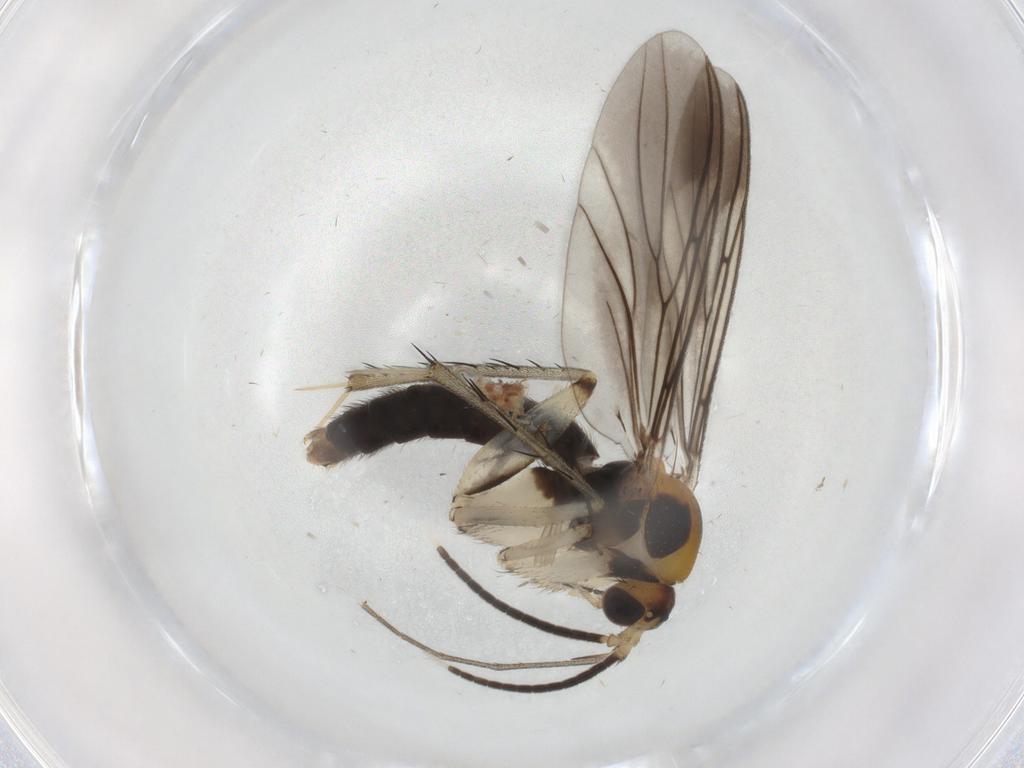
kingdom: Animalia
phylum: Arthropoda
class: Insecta
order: Diptera
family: Mycetophilidae
